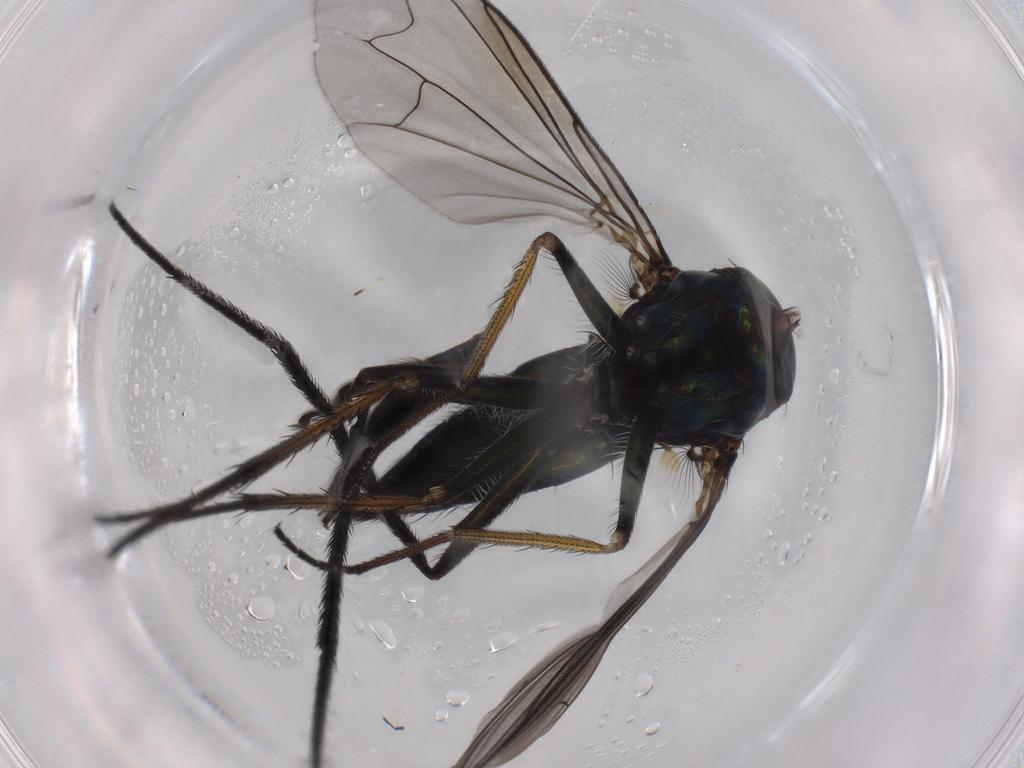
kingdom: Animalia
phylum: Arthropoda
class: Insecta
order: Diptera
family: Dolichopodidae
